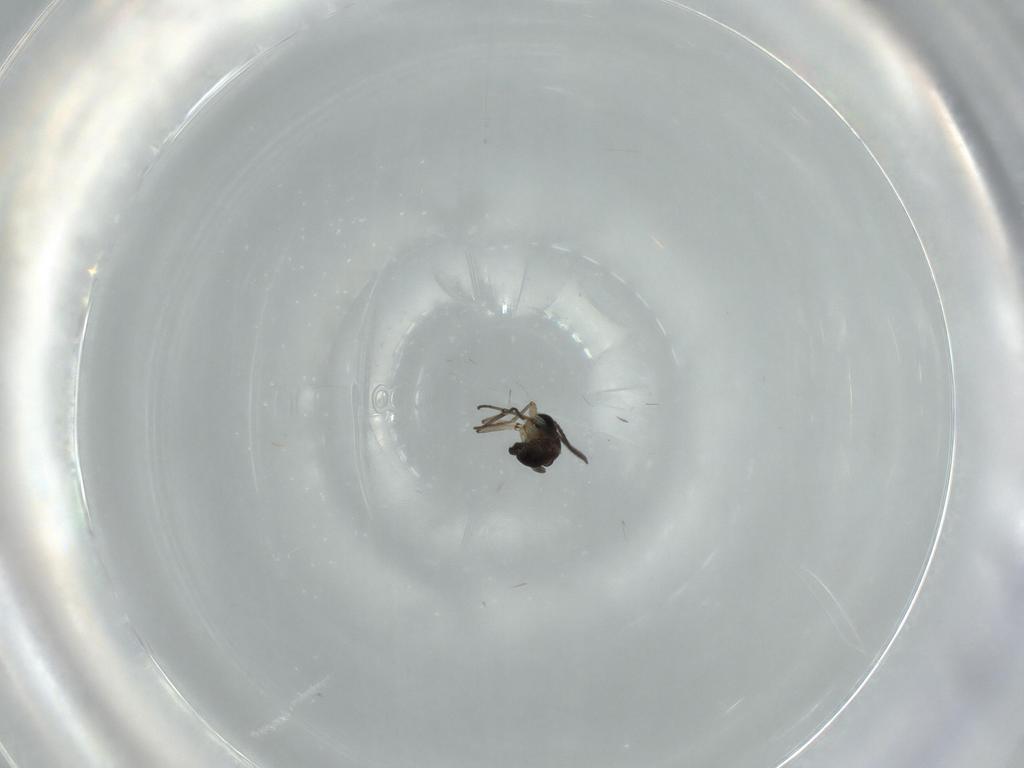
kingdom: Animalia
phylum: Arthropoda
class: Insecta
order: Diptera
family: Sciaridae
